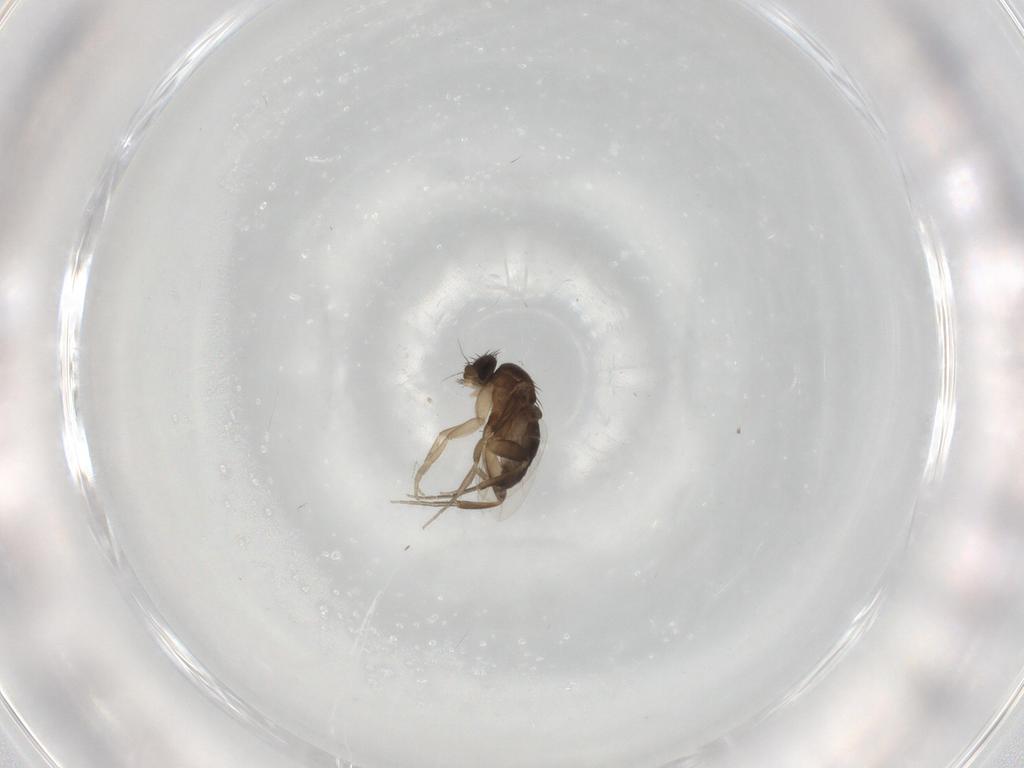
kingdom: Animalia
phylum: Arthropoda
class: Insecta
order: Diptera
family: Phoridae
